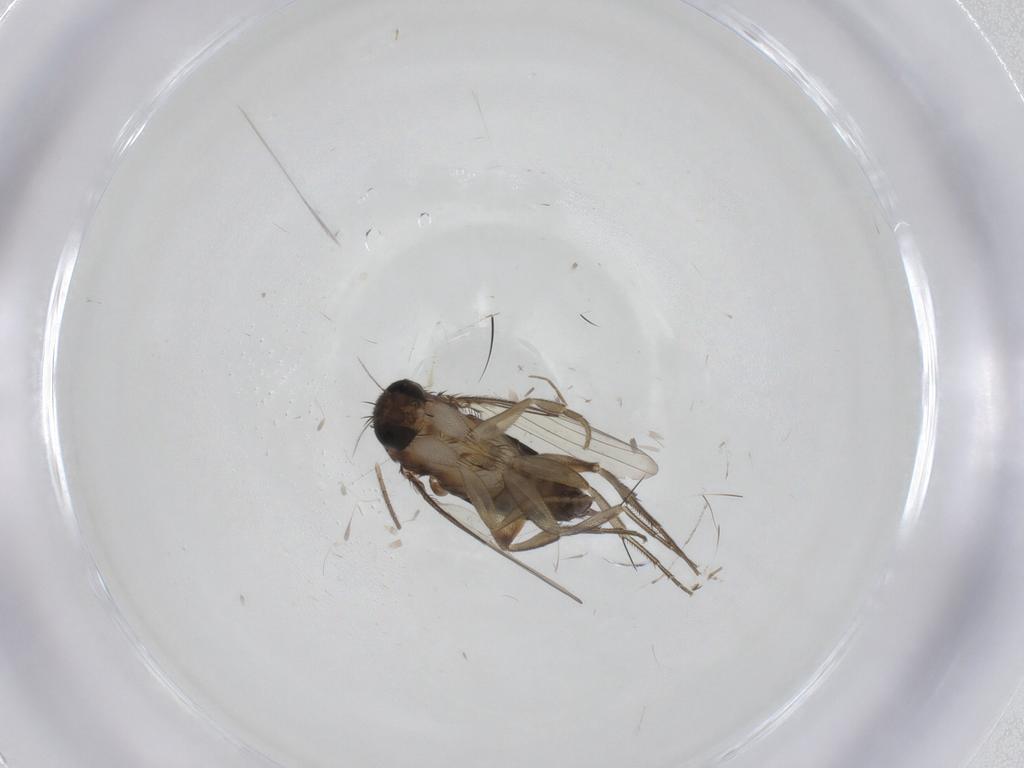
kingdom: Animalia
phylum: Arthropoda
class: Insecta
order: Diptera
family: Phoridae
